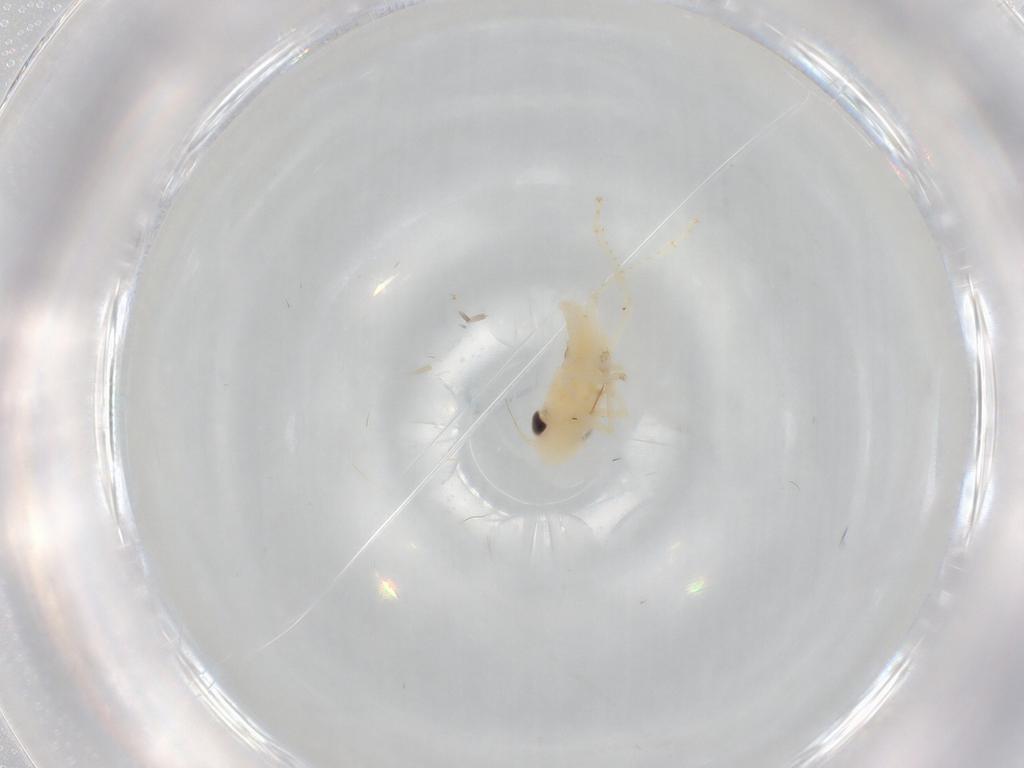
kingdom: Animalia
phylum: Arthropoda
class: Insecta
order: Hemiptera
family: Cicadellidae
